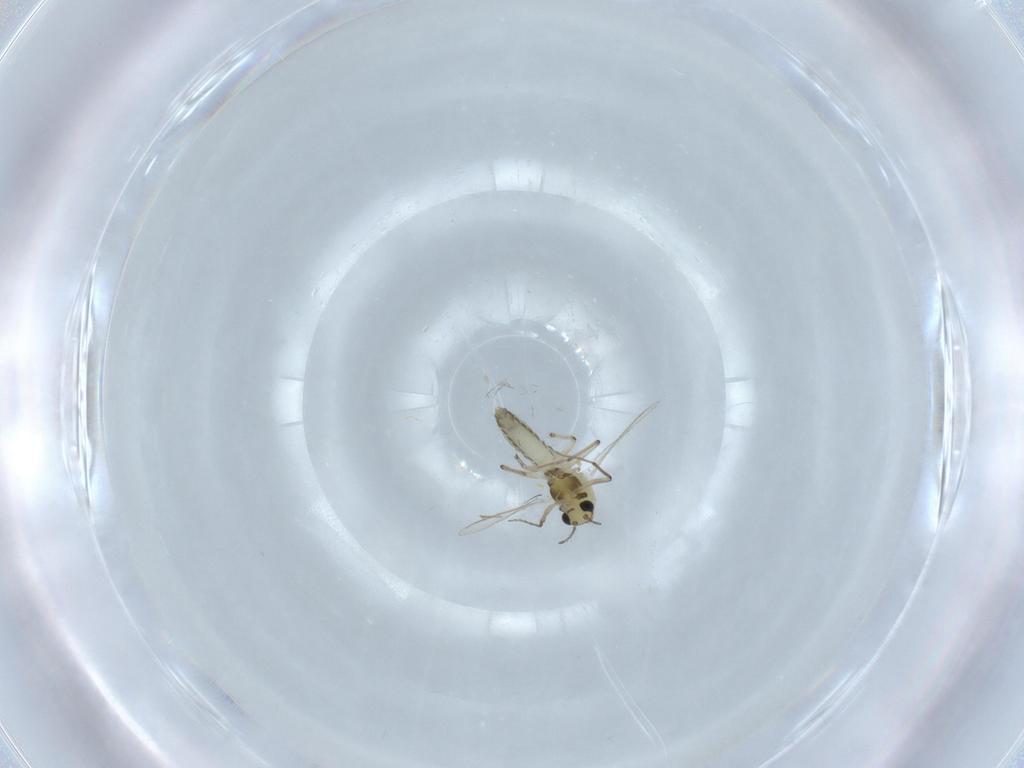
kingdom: Animalia
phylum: Arthropoda
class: Insecta
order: Diptera
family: Chironomidae
